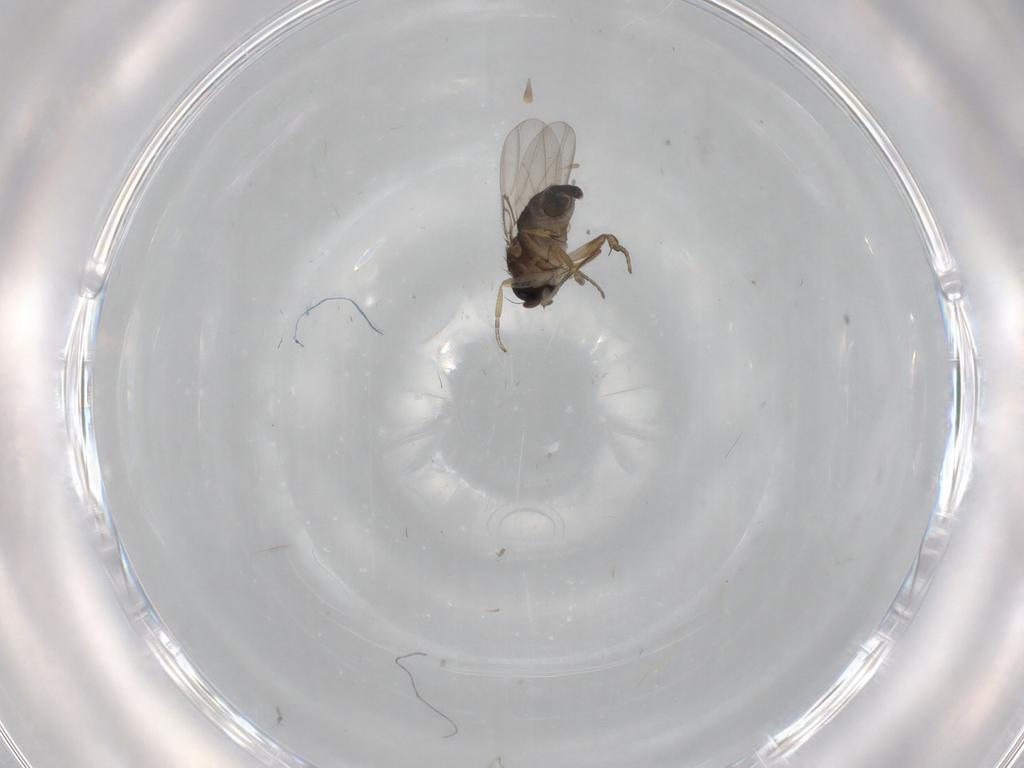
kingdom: Animalia
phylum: Arthropoda
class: Insecta
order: Diptera
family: Phoridae
